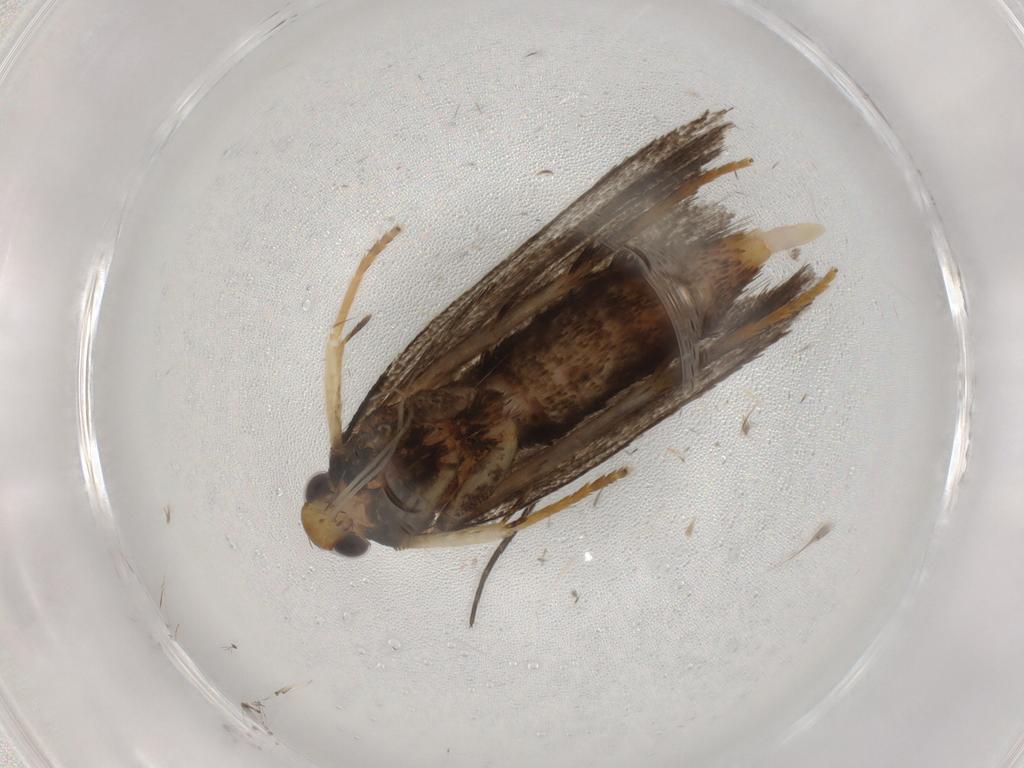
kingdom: Animalia
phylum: Arthropoda
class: Insecta
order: Lepidoptera
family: Lecithoceridae
